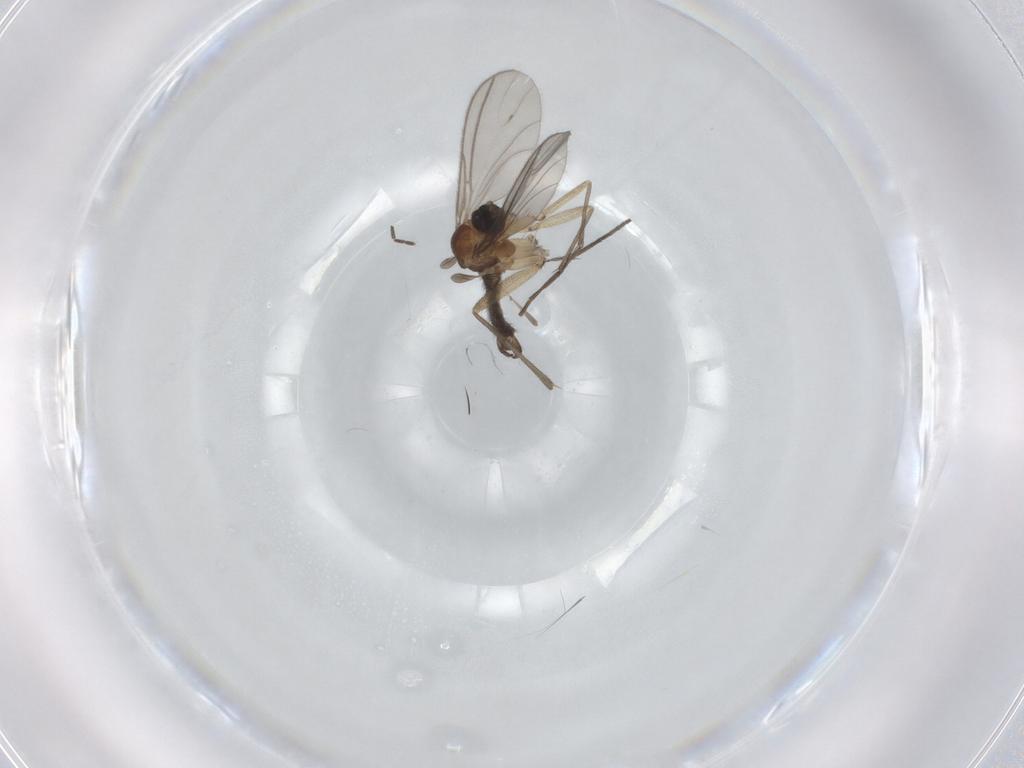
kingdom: Animalia
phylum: Arthropoda
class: Insecta
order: Diptera
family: Sciaridae
